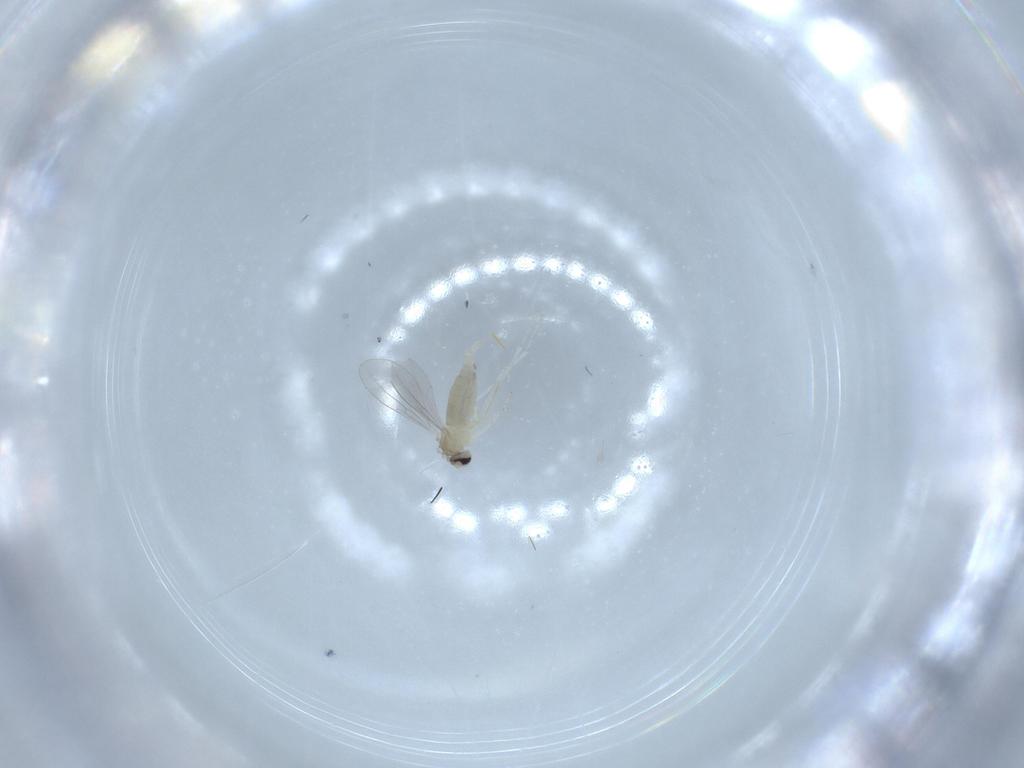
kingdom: Animalia
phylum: Arthropoda
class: Insecta
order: Diptera
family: Cecidomyiidae
